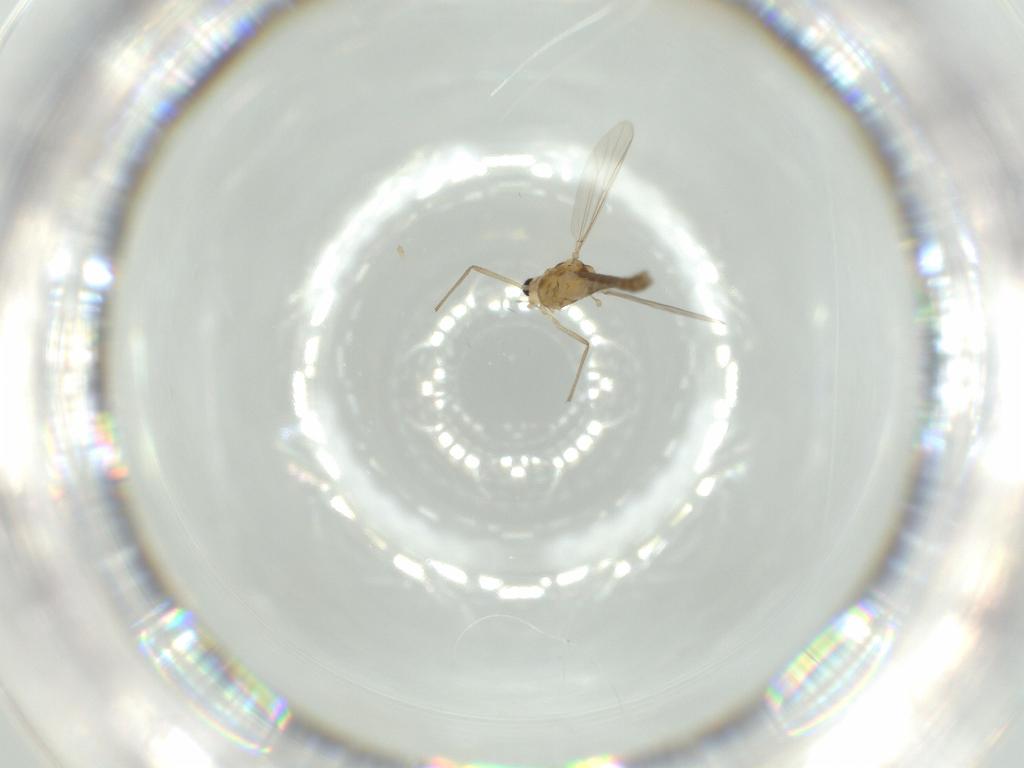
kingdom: Animalia
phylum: Arthropoda
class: Insecta
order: Diptera
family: Chironomidae
